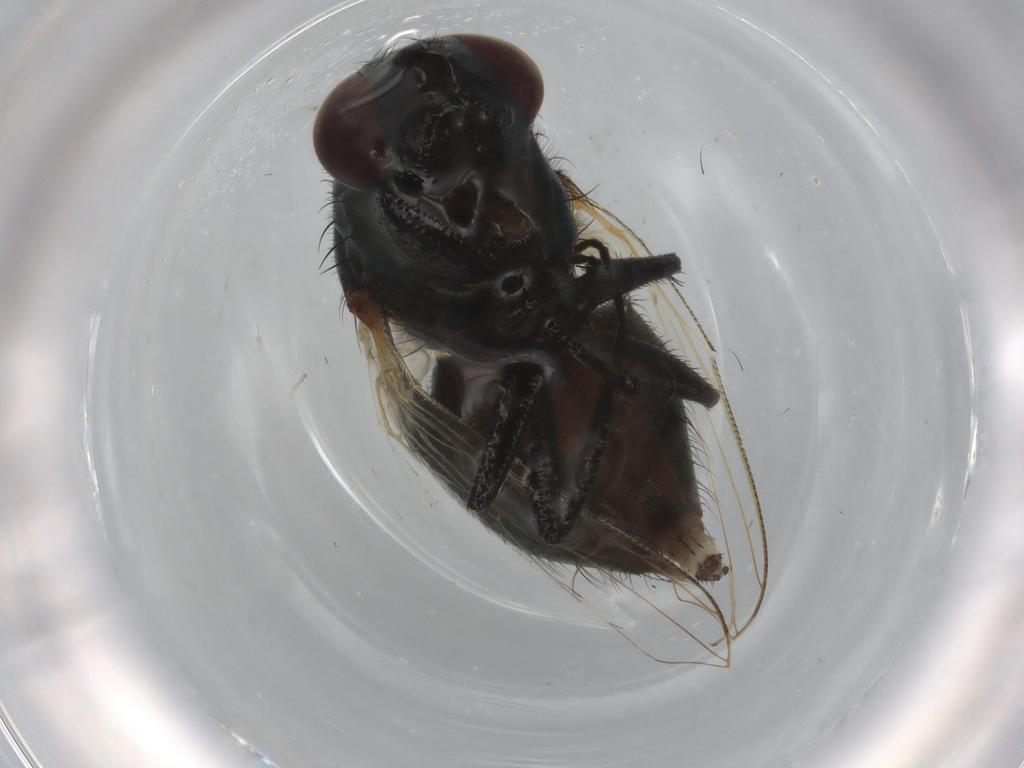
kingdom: Animalia
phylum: Arthropoda
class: Insecta
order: Diptera
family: Muscidae
